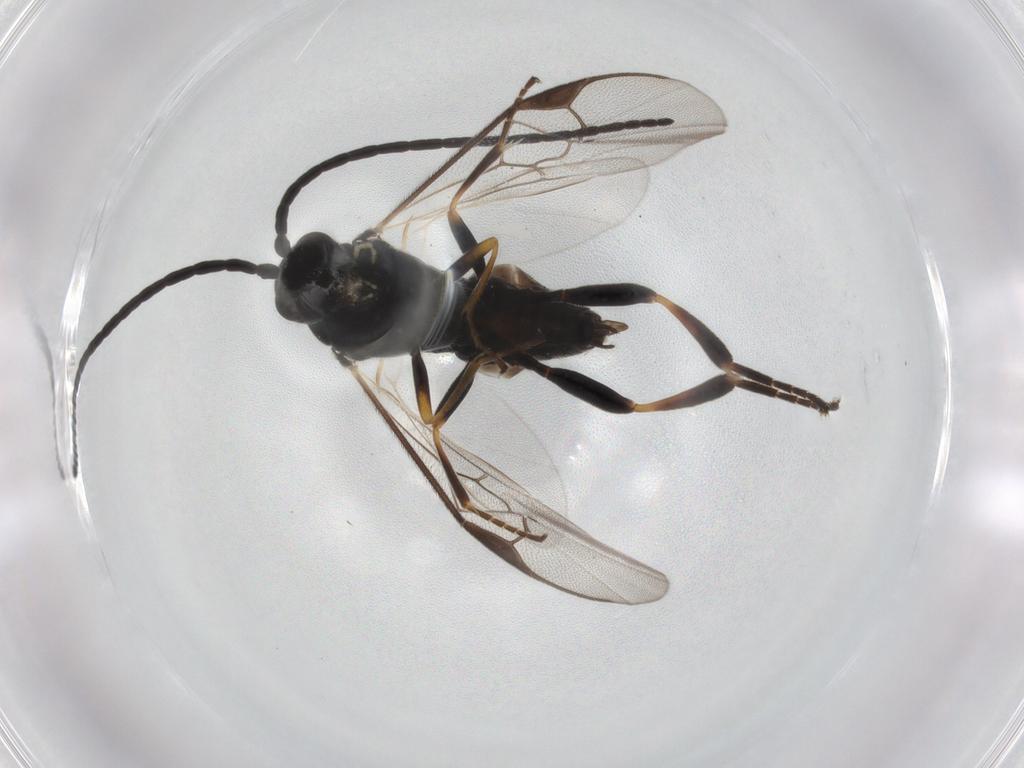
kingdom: Animalia
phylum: Arthropoda
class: Insecta
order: Hymenoptera
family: Braconidae
